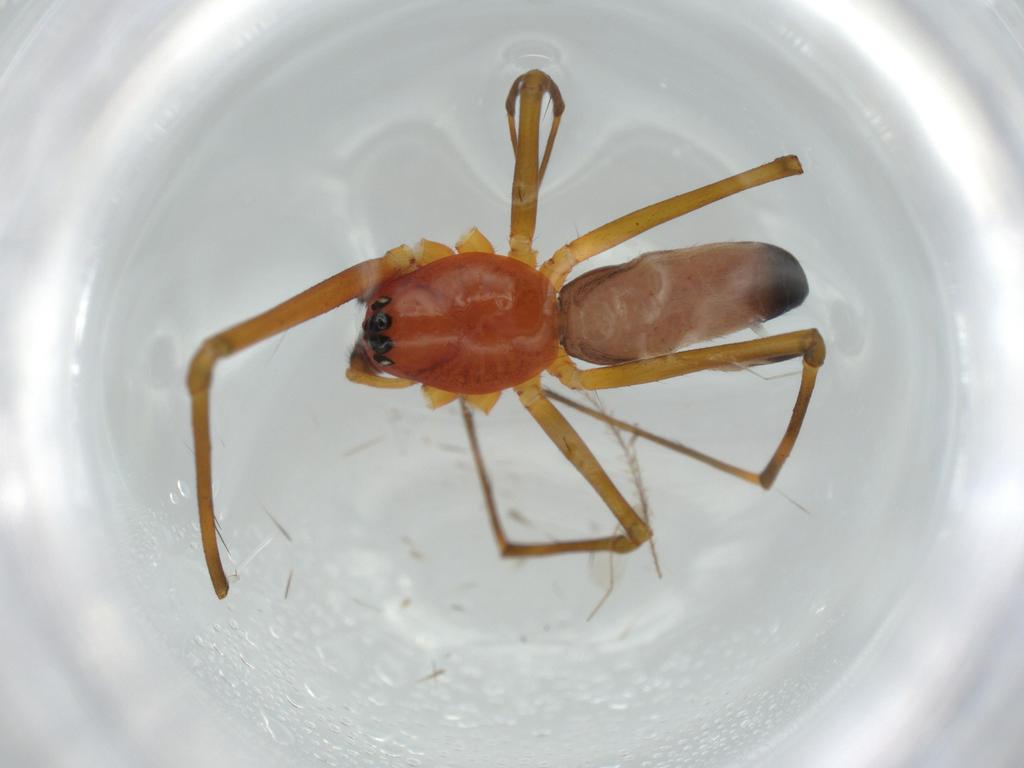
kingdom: Animalia
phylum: Arthropoda
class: Arachnida
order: Araneae
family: Linyphiidae
